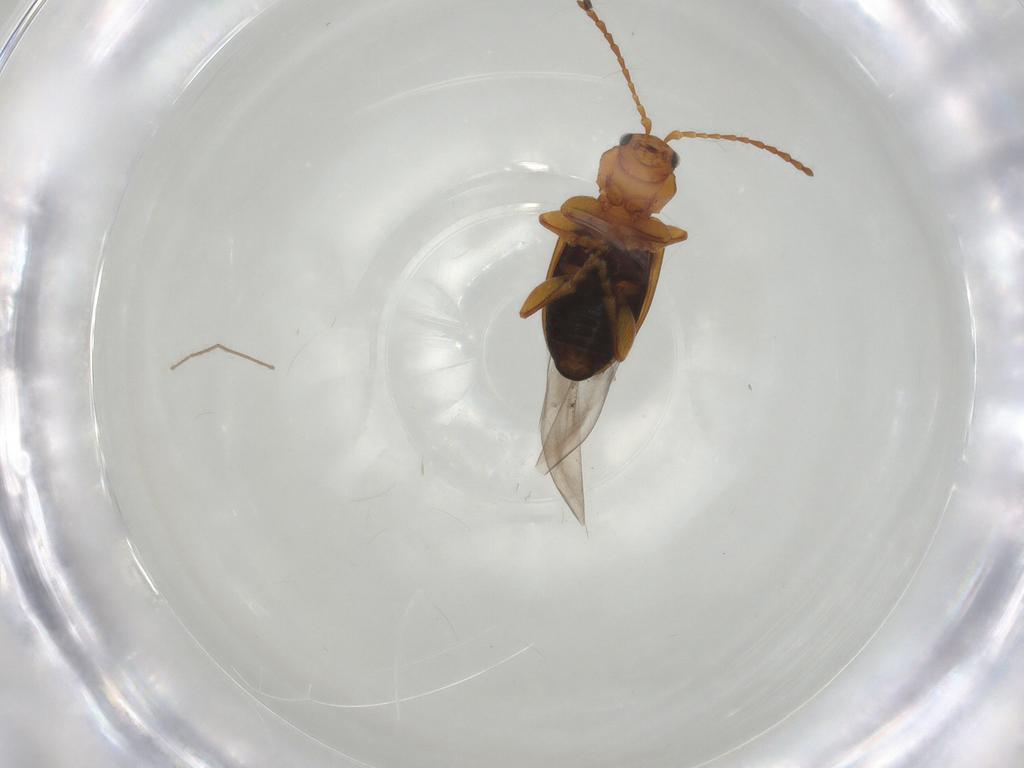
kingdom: Animalia
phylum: Arthropoda
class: Insecta
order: Coleoptera
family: Chrysomelidae
